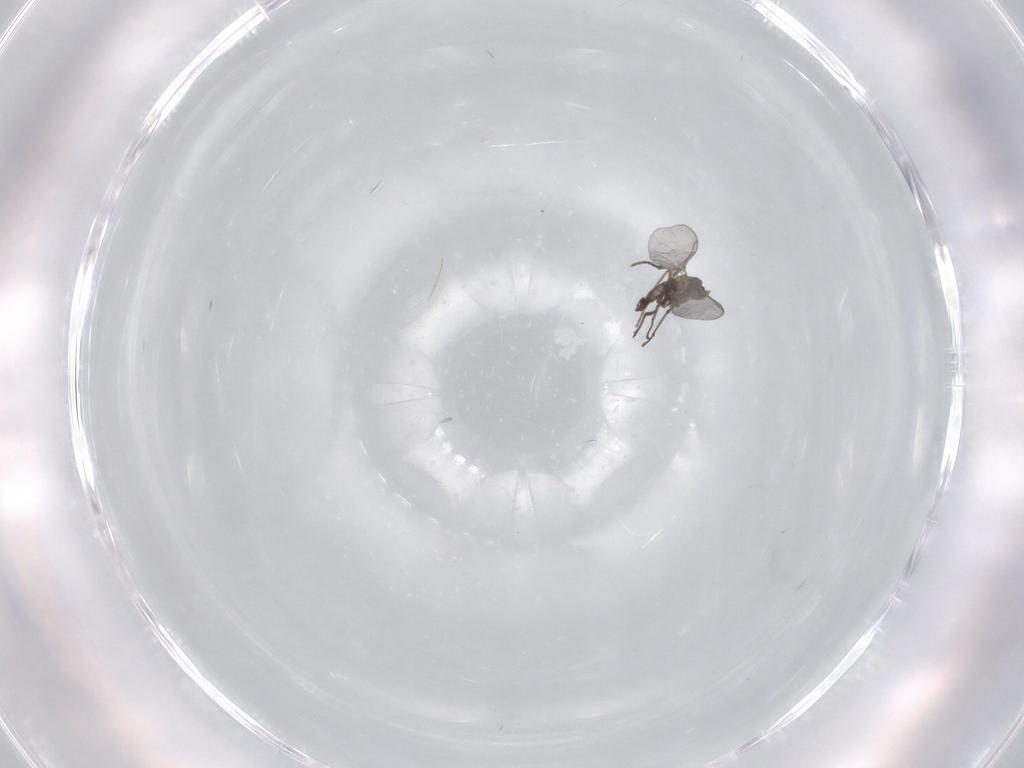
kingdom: Animalia
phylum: Arthropoda
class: Insecta
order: Diptera
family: Sciaridae
